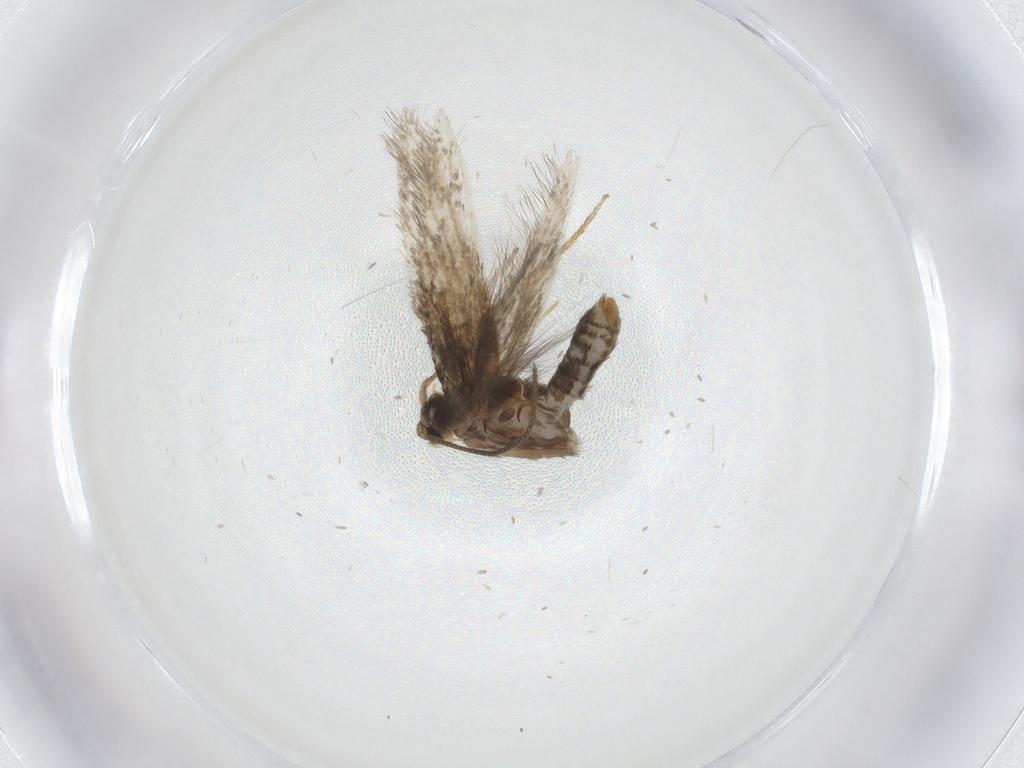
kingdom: Animalia
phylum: Arthropoda
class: Insecta
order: Lepidoptera
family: Nepticulidae
